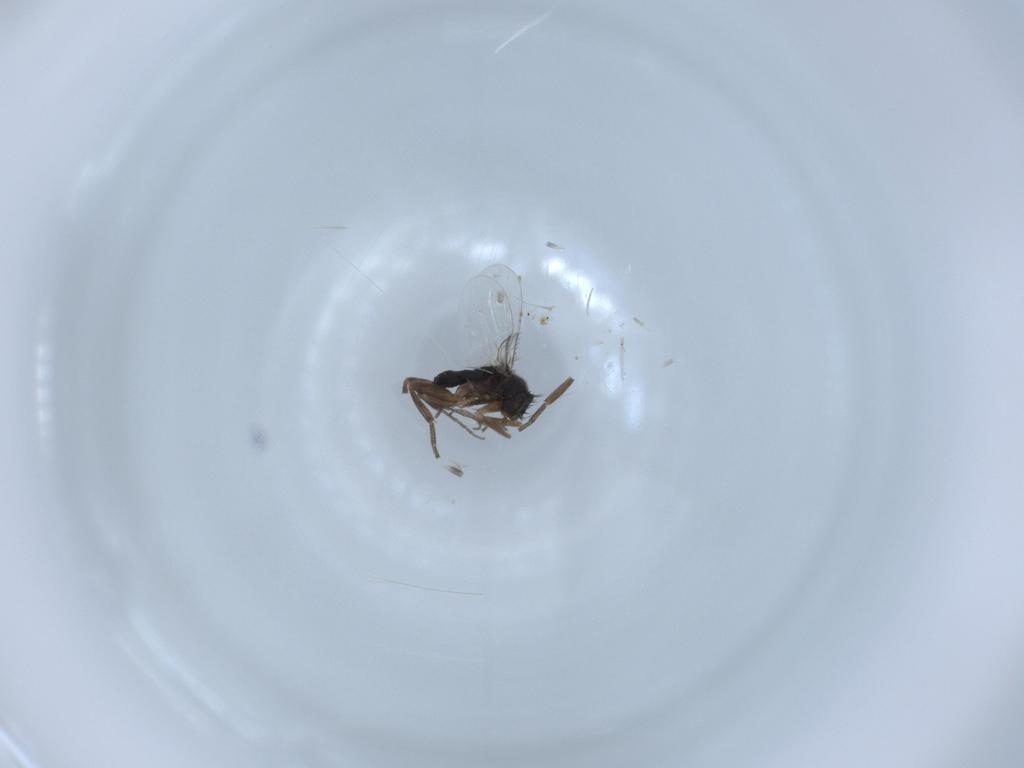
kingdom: Animalia
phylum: Arthropoda
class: Insecta
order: Diptera
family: Phoridae
